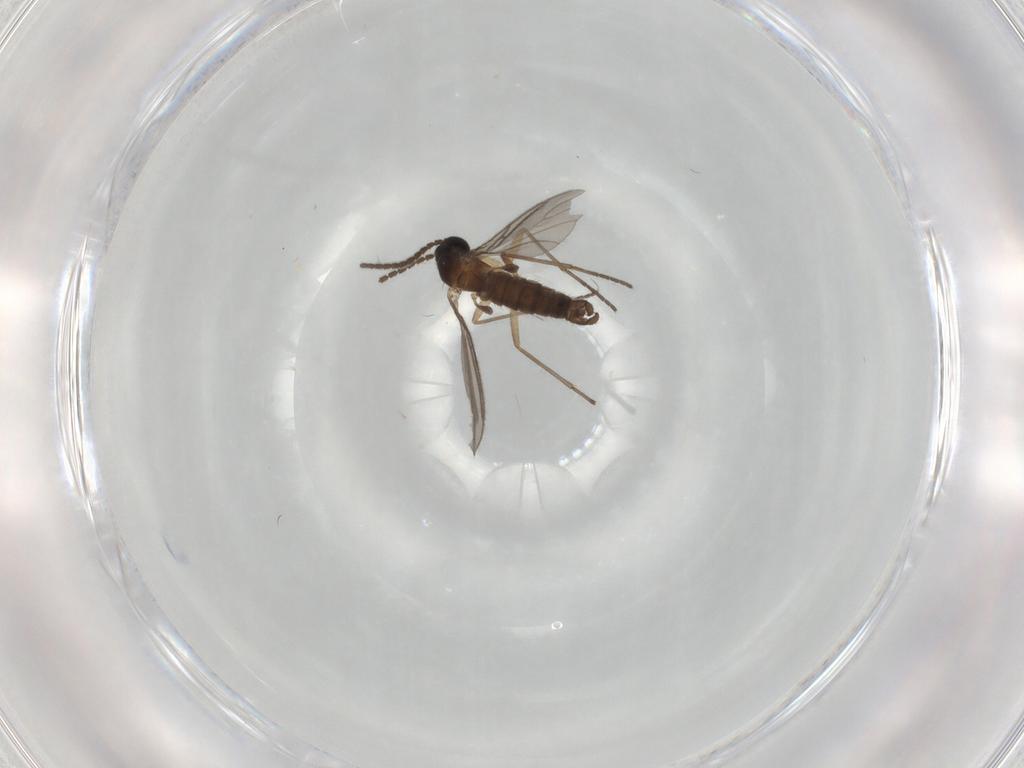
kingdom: Animalia
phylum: Arthropoda
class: Insecta
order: Diptera
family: Sciaridae
